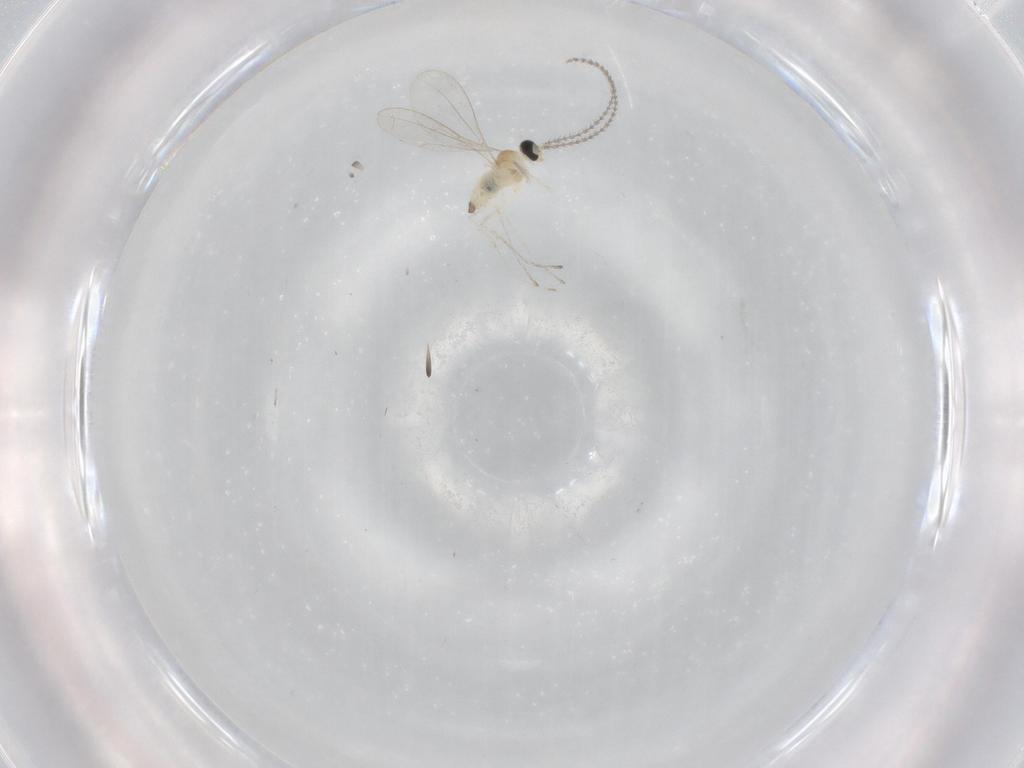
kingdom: Animalia
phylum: Arthropoda
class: Insecta
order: Diptera
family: Cecidomyiidae
